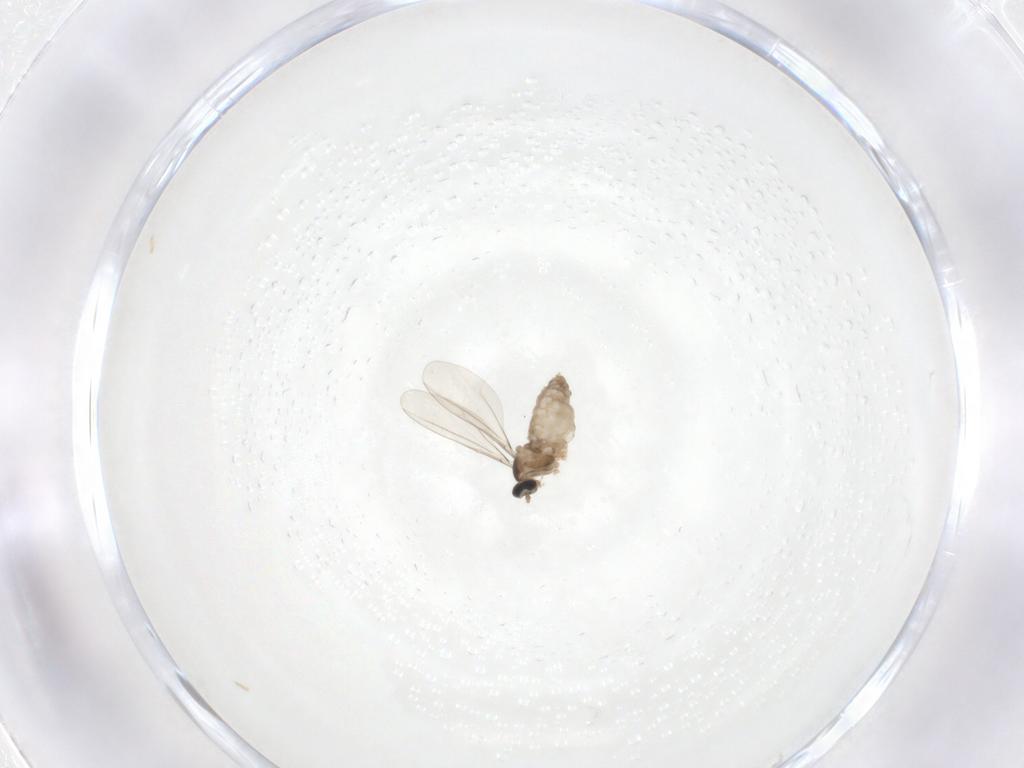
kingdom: Animalia
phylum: Arthropoda
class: Insecta
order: Diptera
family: Cecidomyiidae
